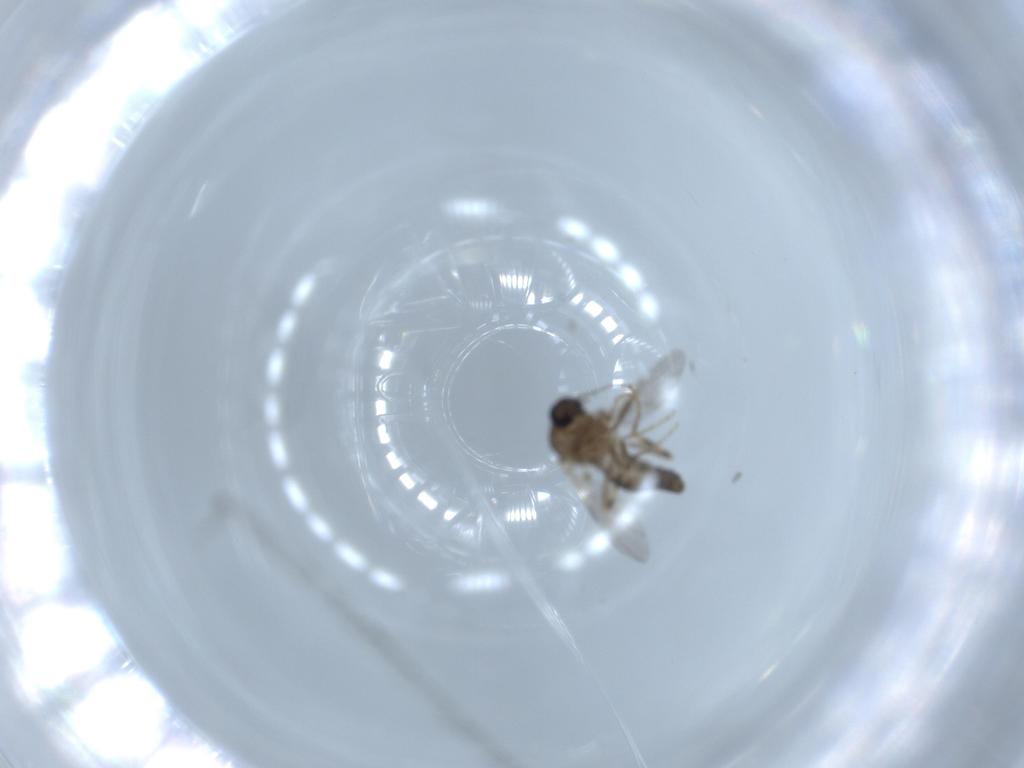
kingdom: Animalia
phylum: Arthropoda
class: Insecta
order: Diptera
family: Ceratopogonidae
